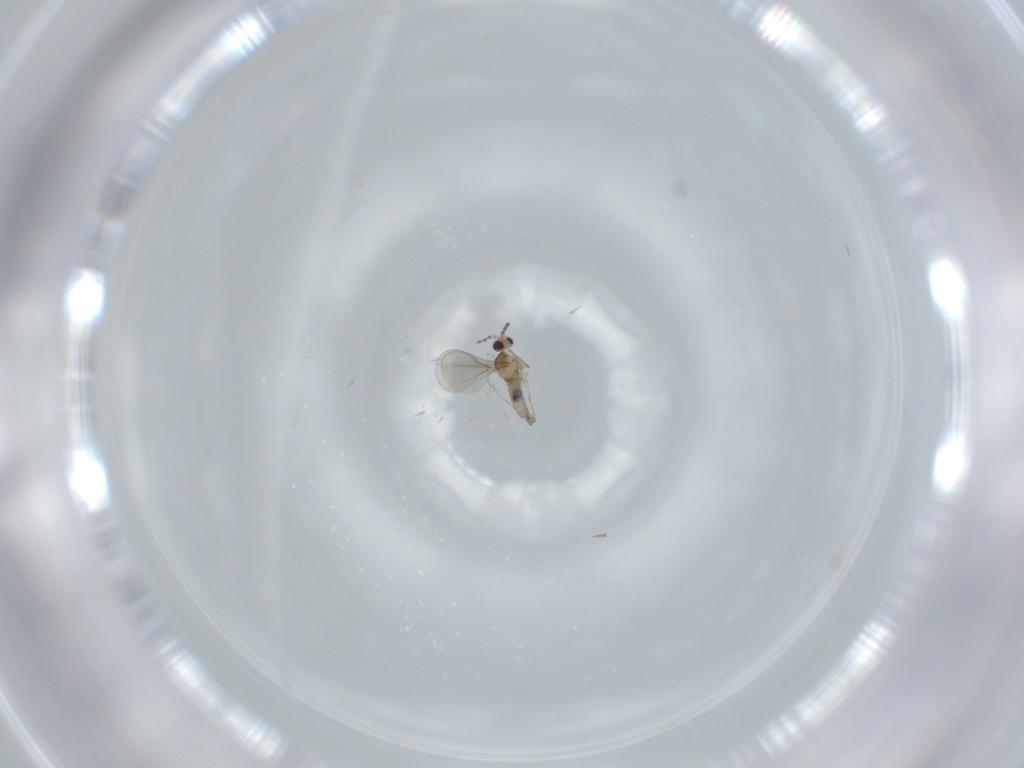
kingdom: Animalia
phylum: Arthropoda
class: Insecta
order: Diptera
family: Cecidomyiidae
